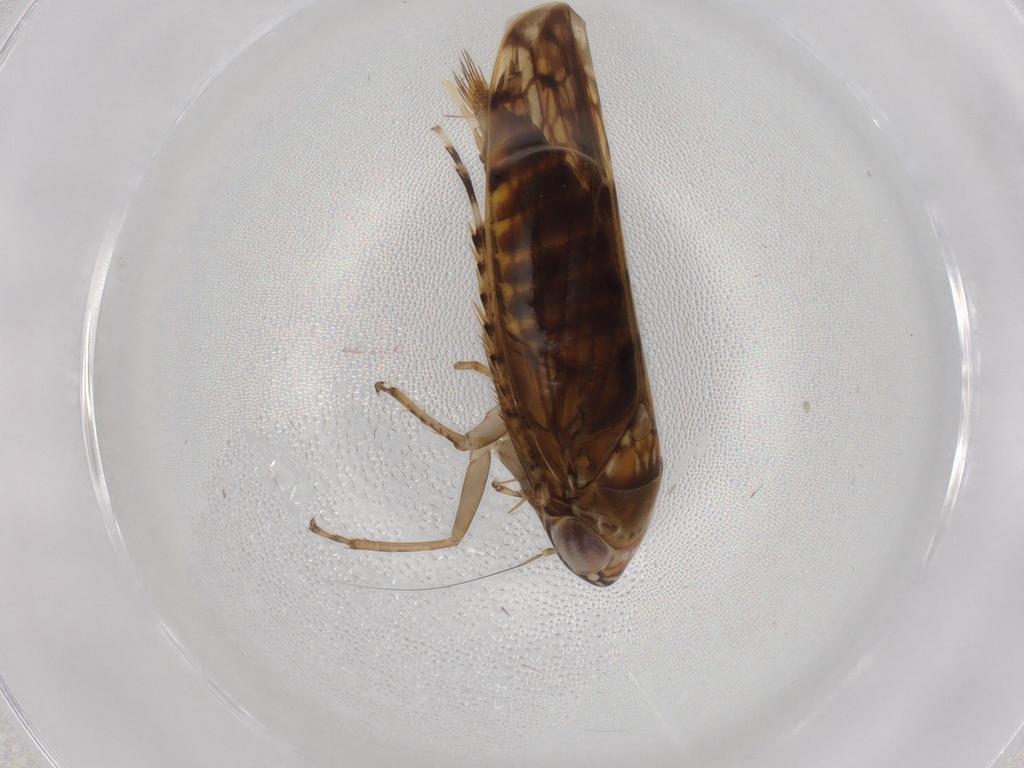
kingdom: Animalia
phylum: Arthropoda
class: Insecta
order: Hemiptera
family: Cicadellidae
